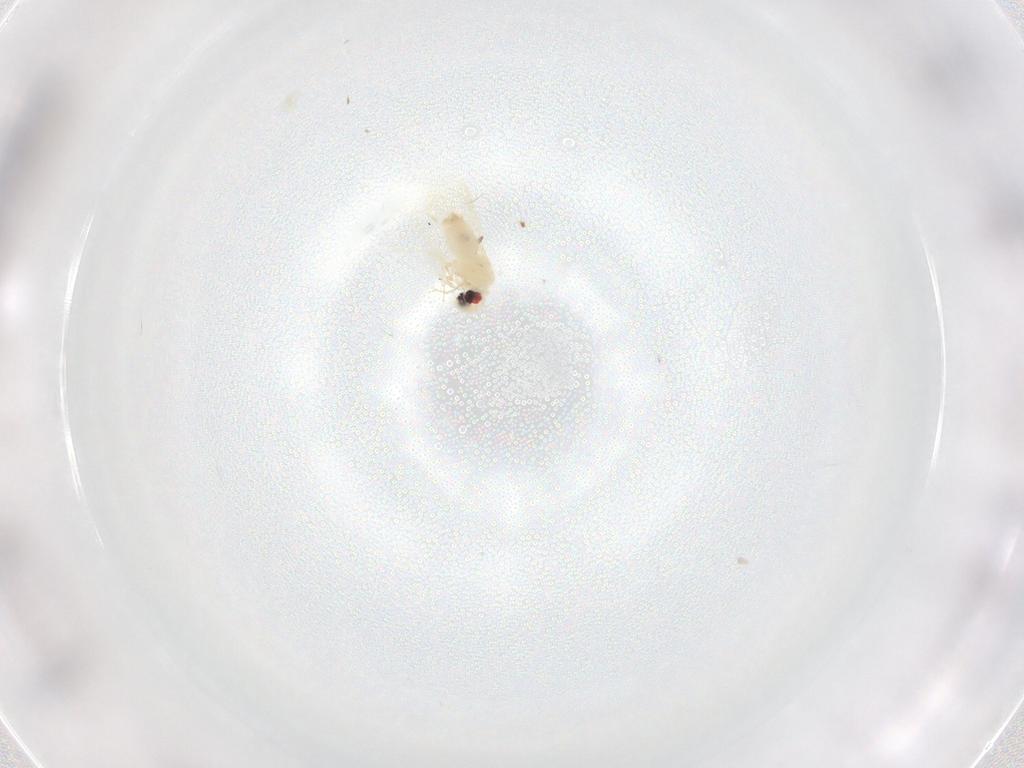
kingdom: Animalia
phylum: Arthropoda
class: Insecta
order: Hemiptera
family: Aleyrodidae
